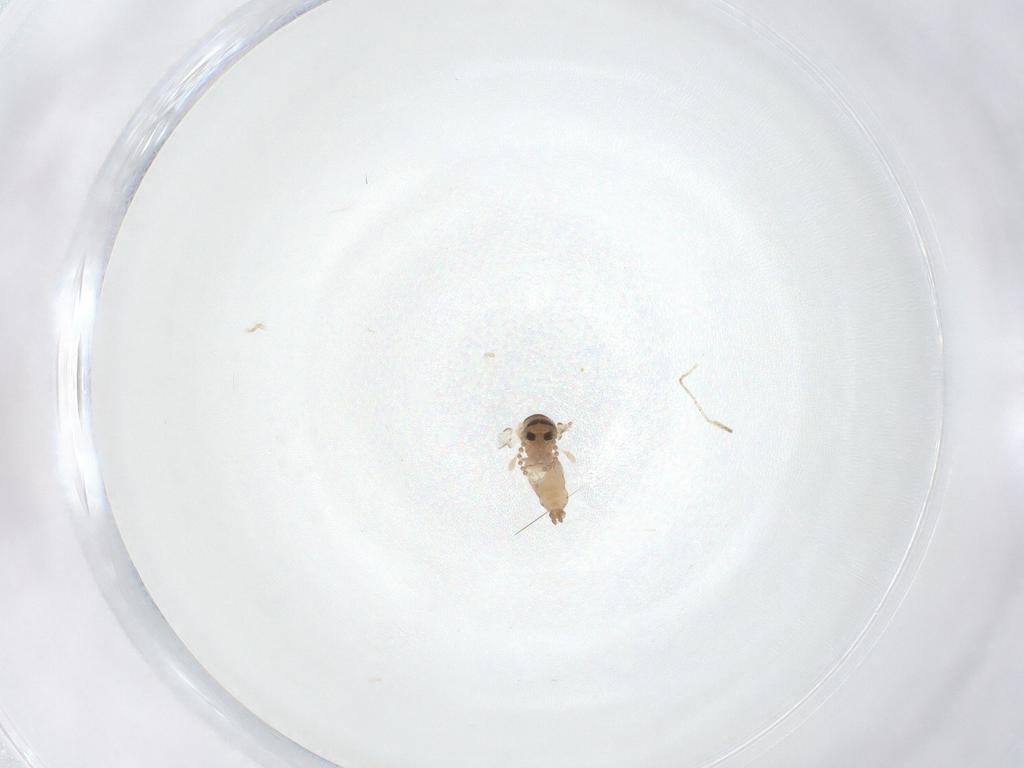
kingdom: Animalia
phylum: Arthropoda
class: Insecta
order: Diptera
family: Psychodidae
